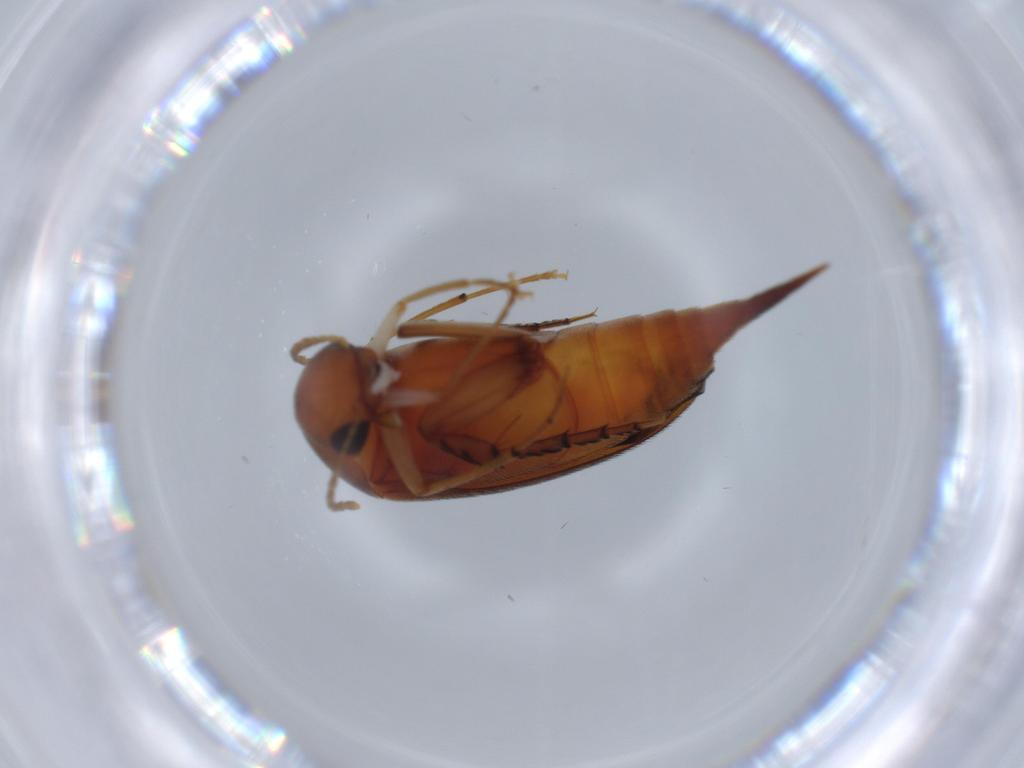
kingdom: Animalia
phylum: Arthropoda
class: Insecta
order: Coleoptera
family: Mordellidae
